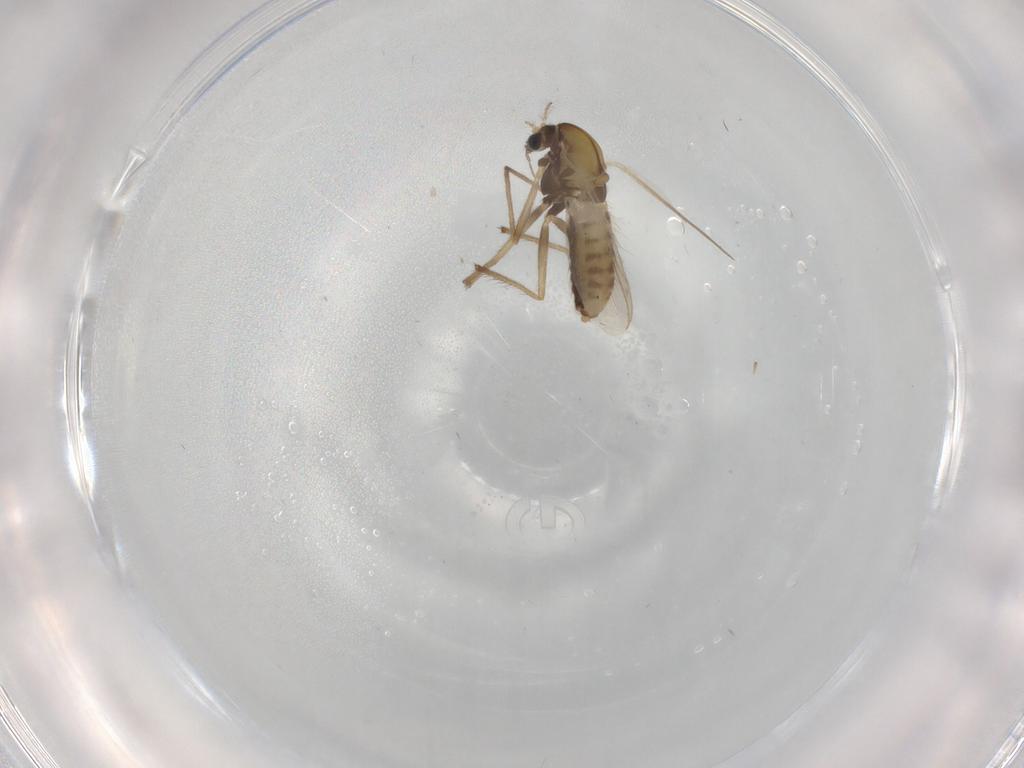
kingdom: Animalia
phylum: Arthropoda
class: Insecta
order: Diptera
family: Chironomidae
